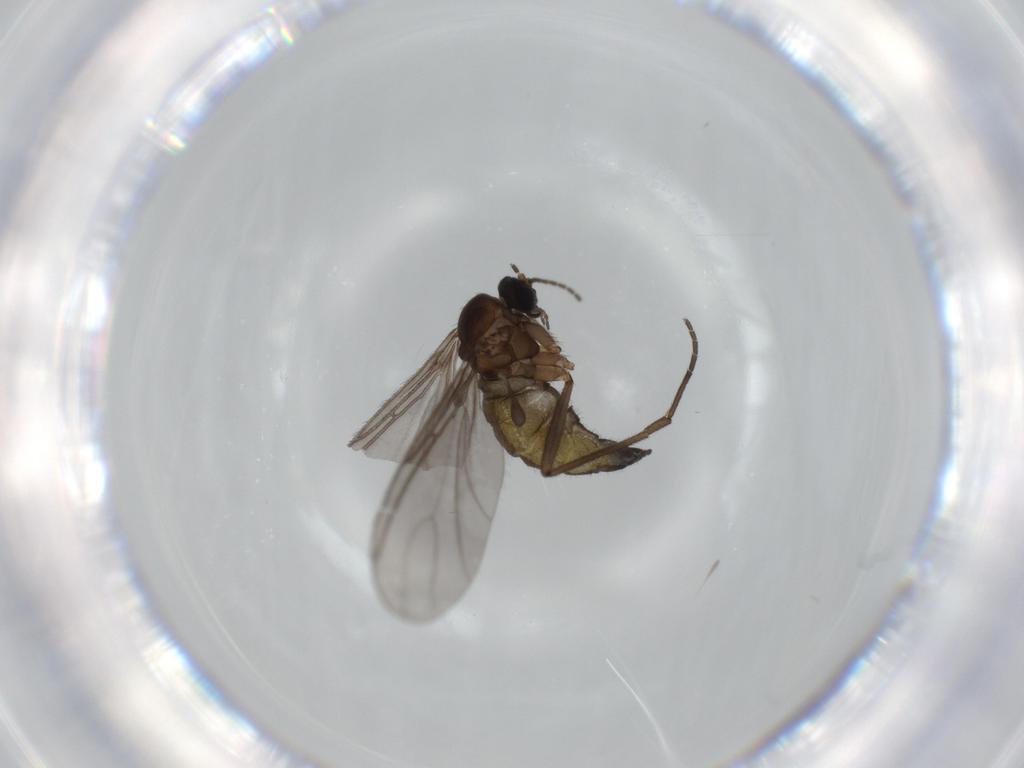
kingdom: Animalia
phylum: Arthropoda
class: Insecta
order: Diptera
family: Sciaridae
